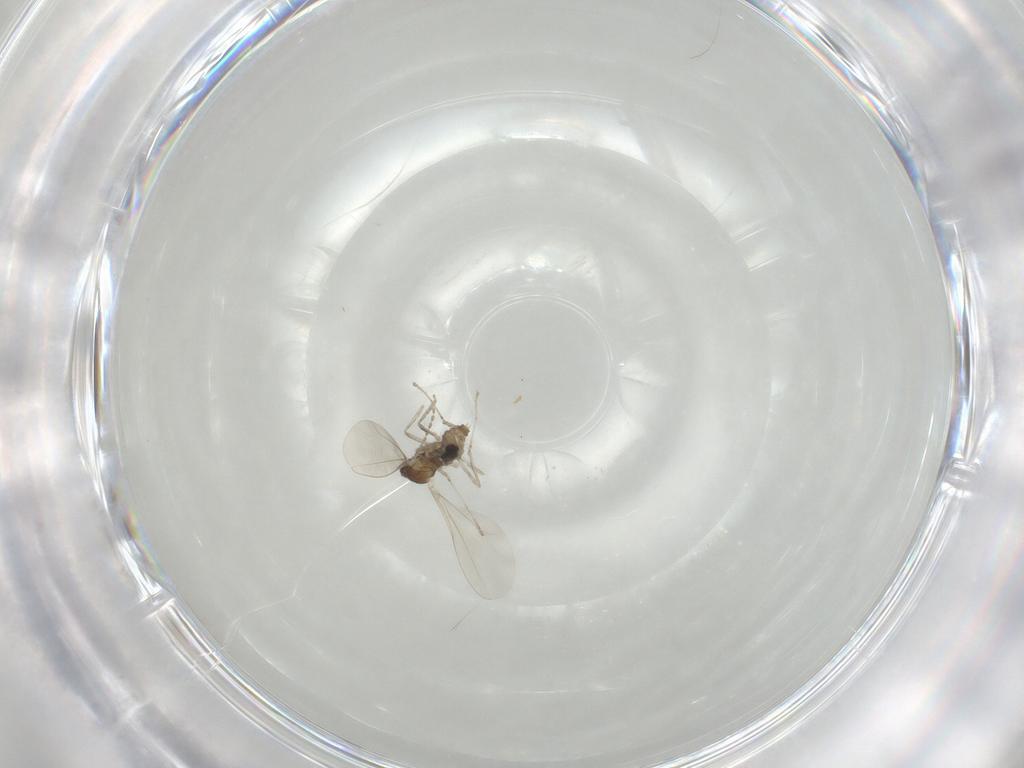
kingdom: Animalia
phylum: Arthropoda
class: Insecta
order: Diptera
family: Cecidomyiidae
